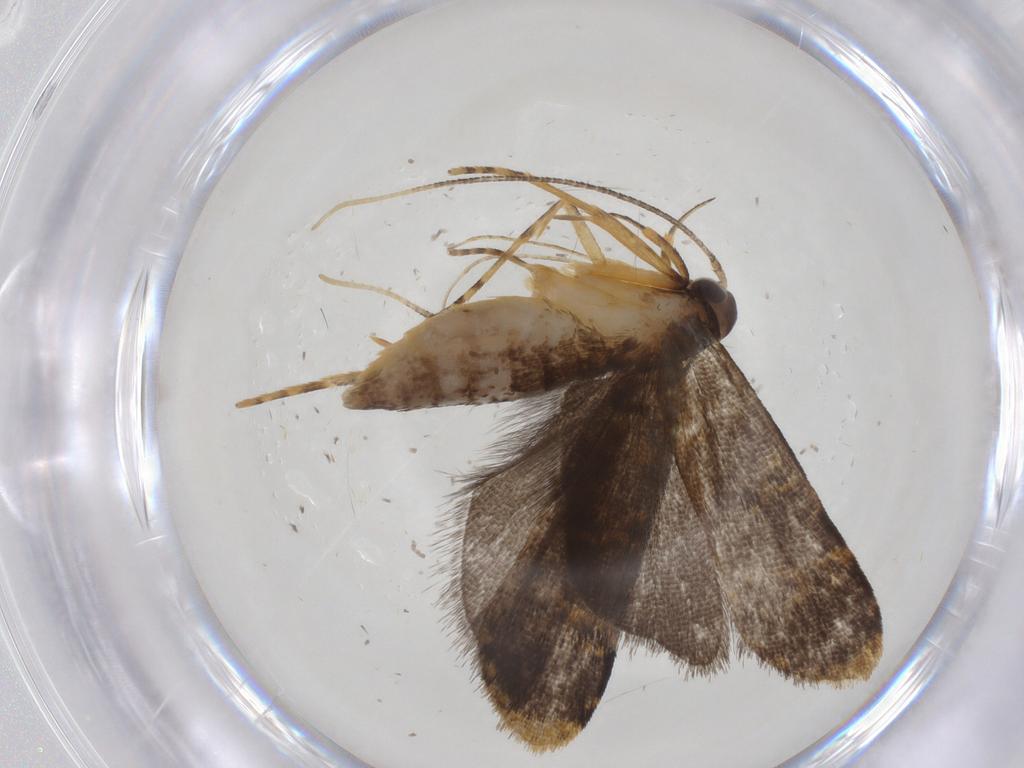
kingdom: Animalia
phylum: Arthropoda
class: Insecta
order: Lepidoptera
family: Cosmopterigidae
